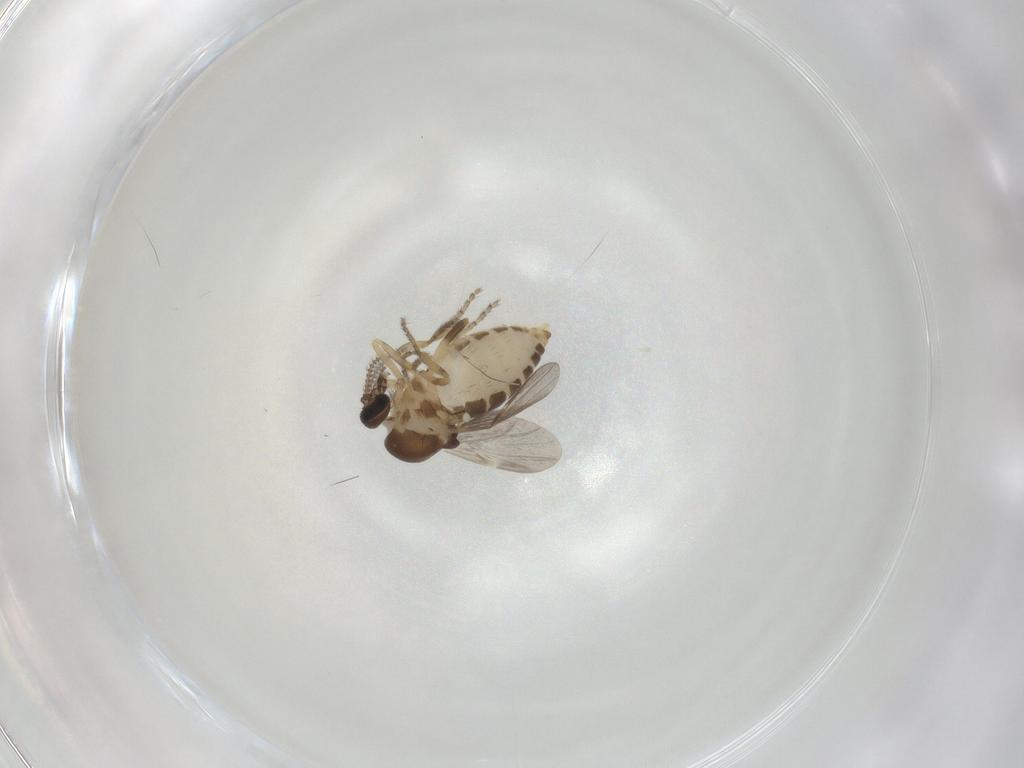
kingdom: Animalia
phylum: Arthropoda
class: Insecta
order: Diptera
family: Ceratopogonidae
